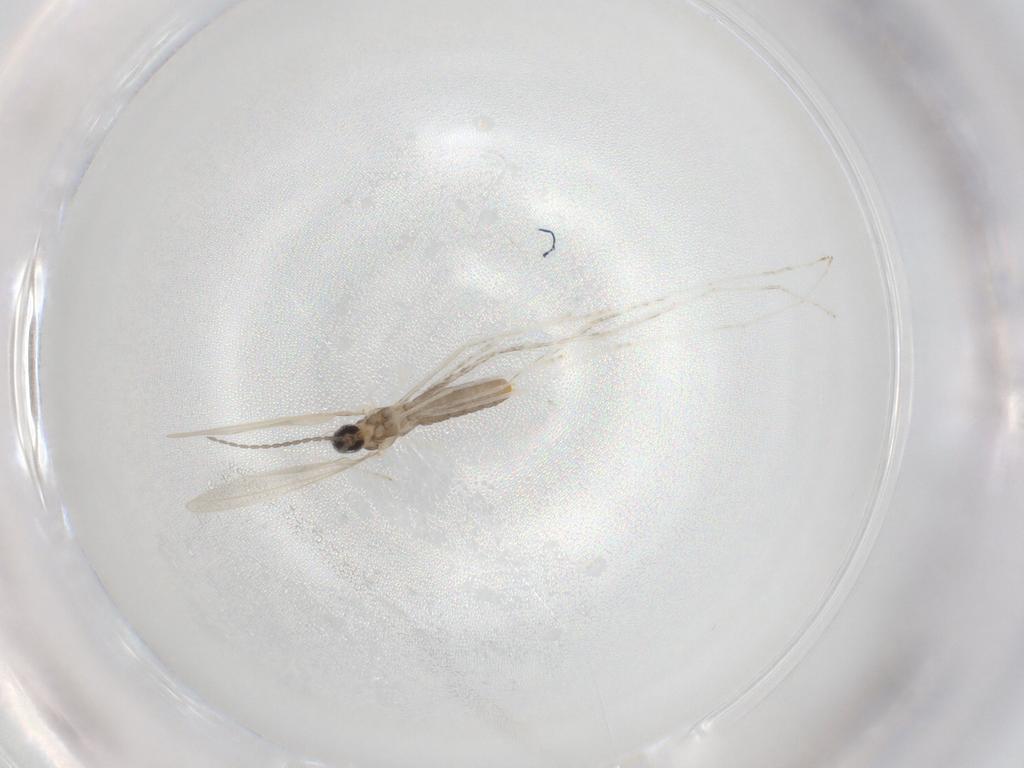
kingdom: Animalia
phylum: Arthropoda
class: Insecta
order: Diptera
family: Cecidomyiidae
